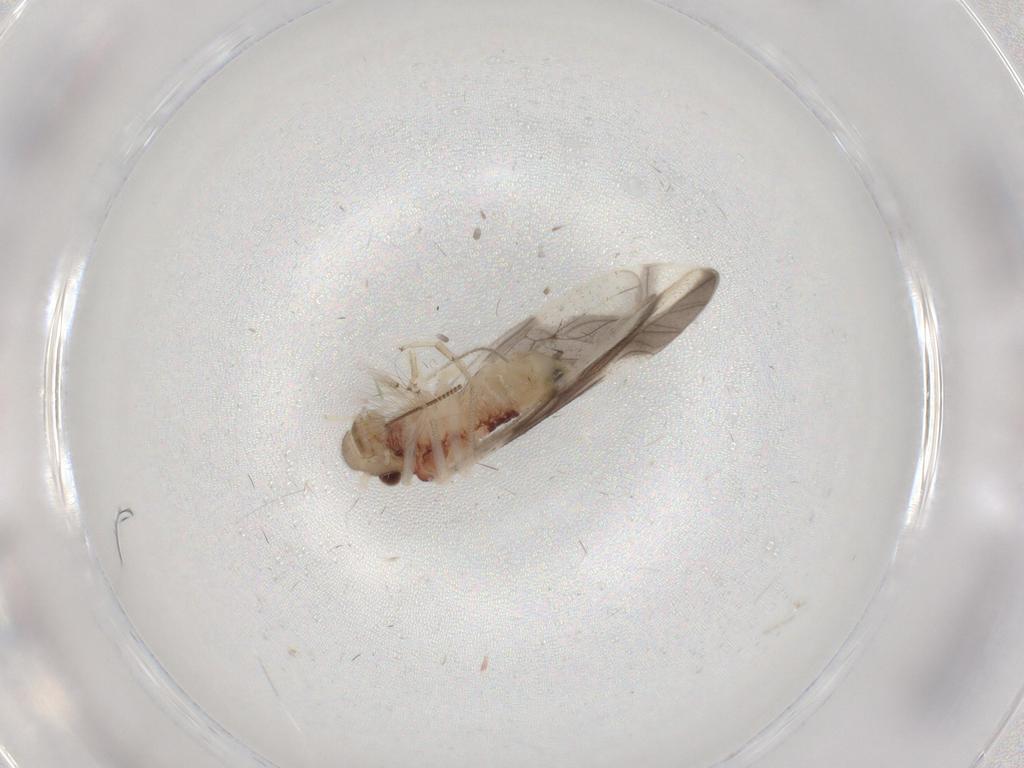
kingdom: Animalia
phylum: Arthropoda
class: Insecta
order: Psocodea
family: Caeciliusidae
